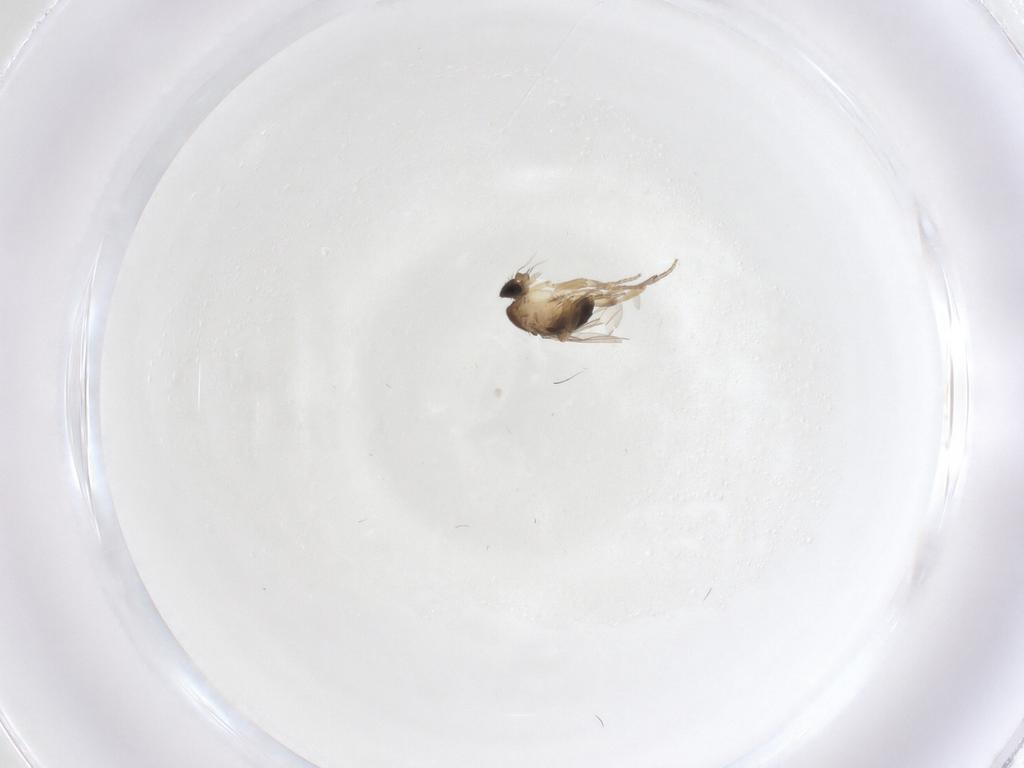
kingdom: Animalia
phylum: Arthropoda
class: Insecta
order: Diptera
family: Phoridae
